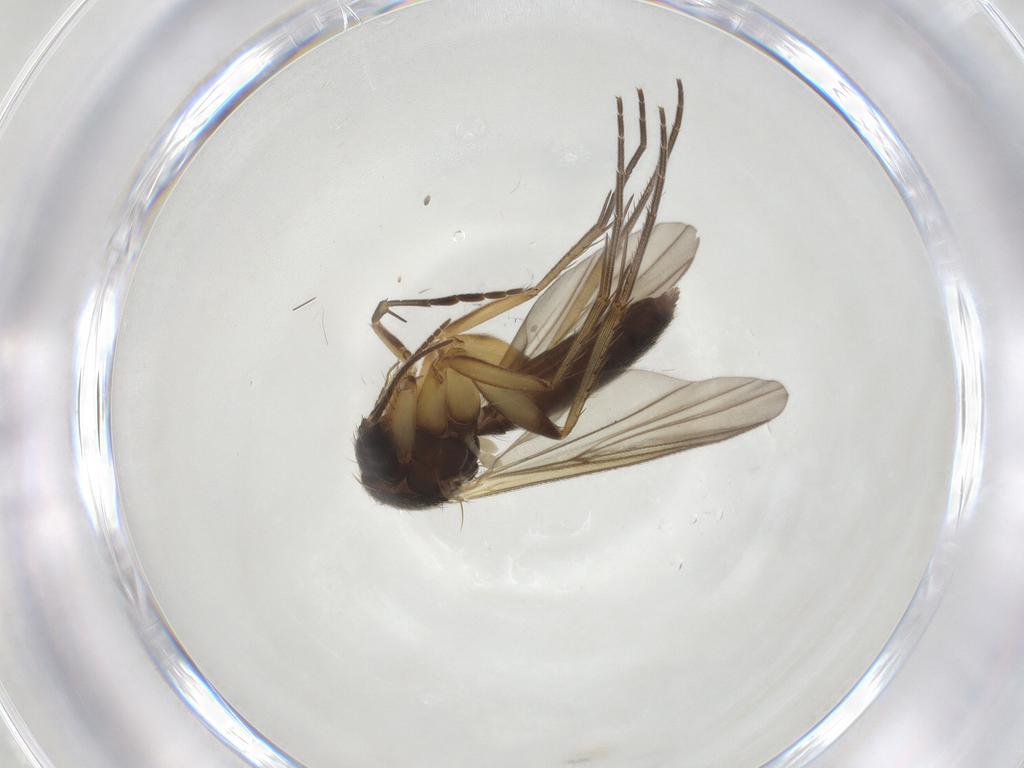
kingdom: Animalia
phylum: Arthropoda
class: Insecta
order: Diptera
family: Mycetophilidae
